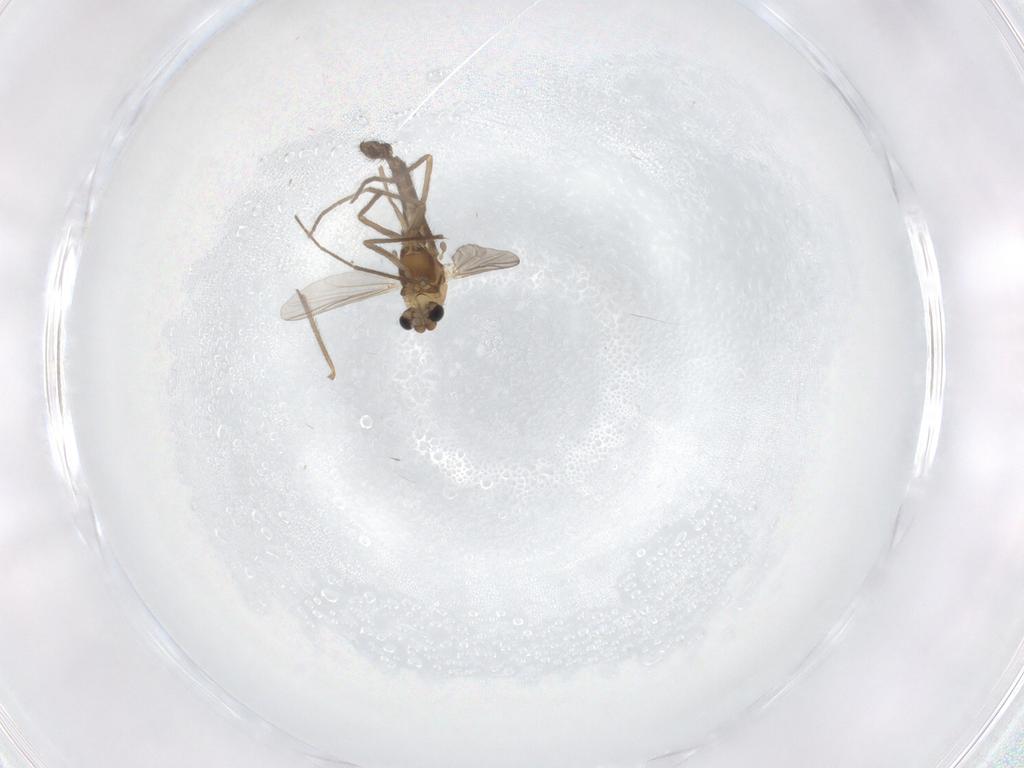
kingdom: Animalia
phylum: Arthropoda
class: Insecta
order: Diptera
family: Chironomidae
